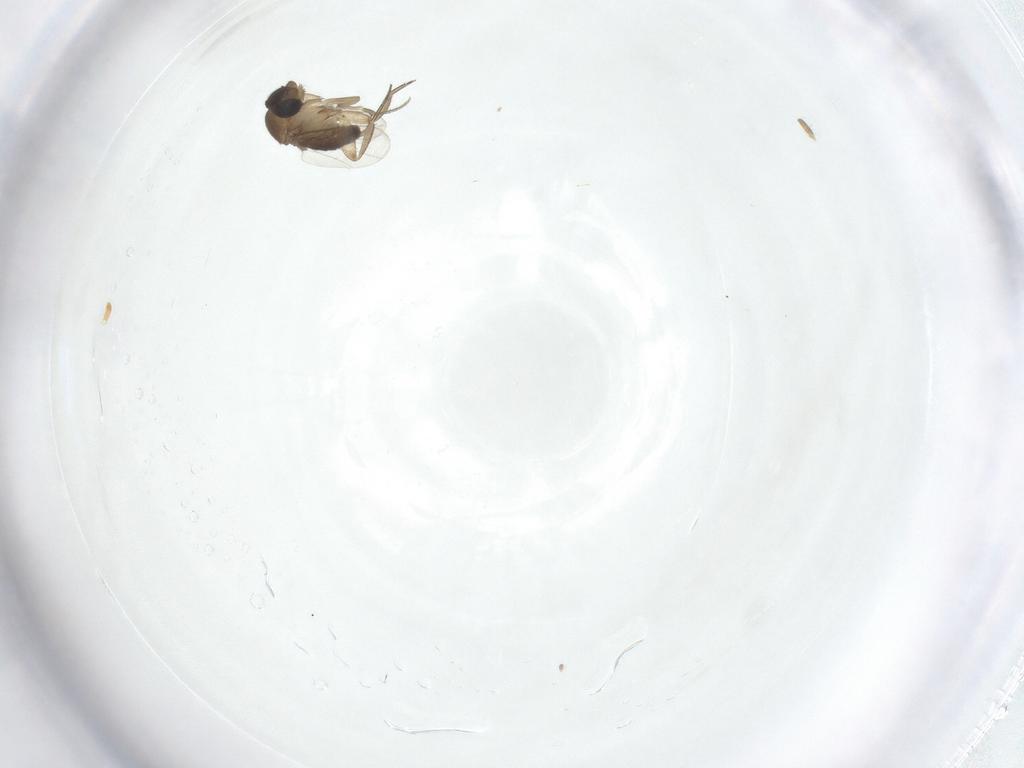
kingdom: Animalia
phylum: Arthropoda
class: Insecta
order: Diptera
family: Phoridae
